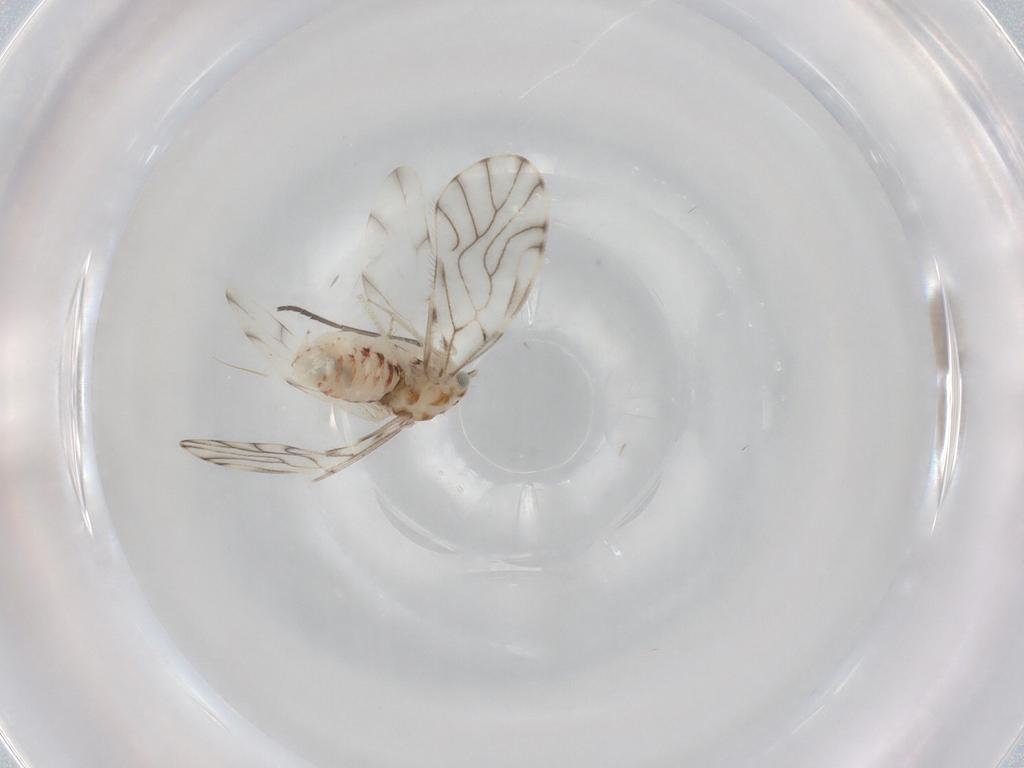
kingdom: Animalia
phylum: Arthropoda
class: Insecta
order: Psocodea
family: Philotarsidae
